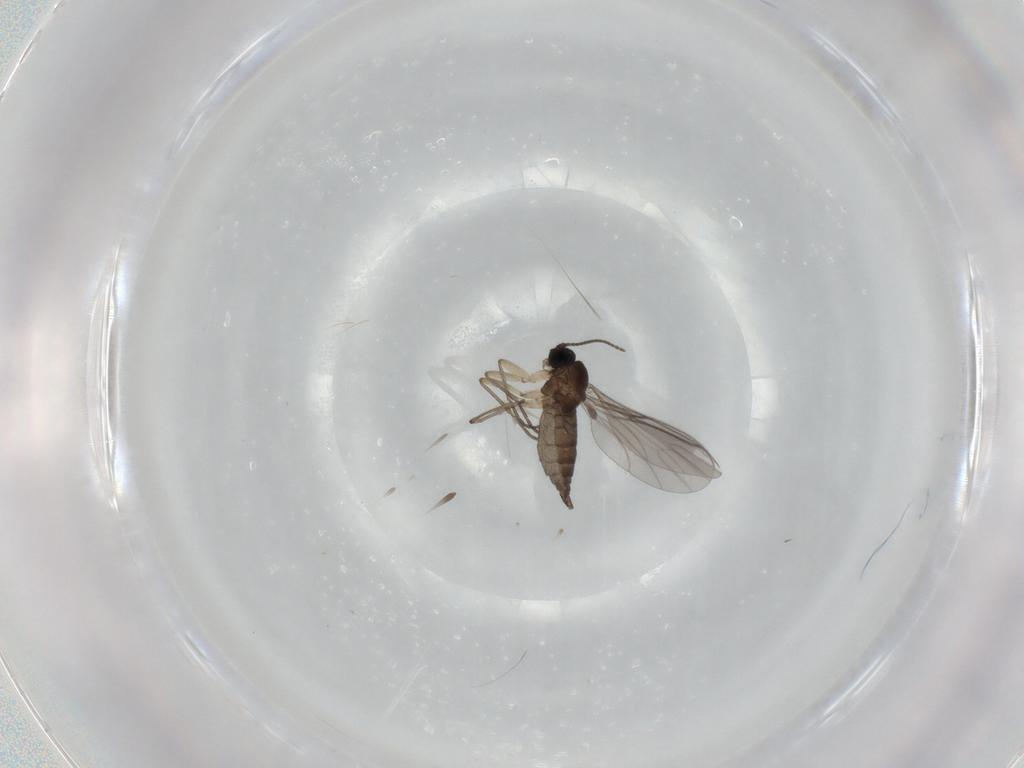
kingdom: Animalia
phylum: Arthropoda
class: Insecta
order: Diptera
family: Sciaridae
